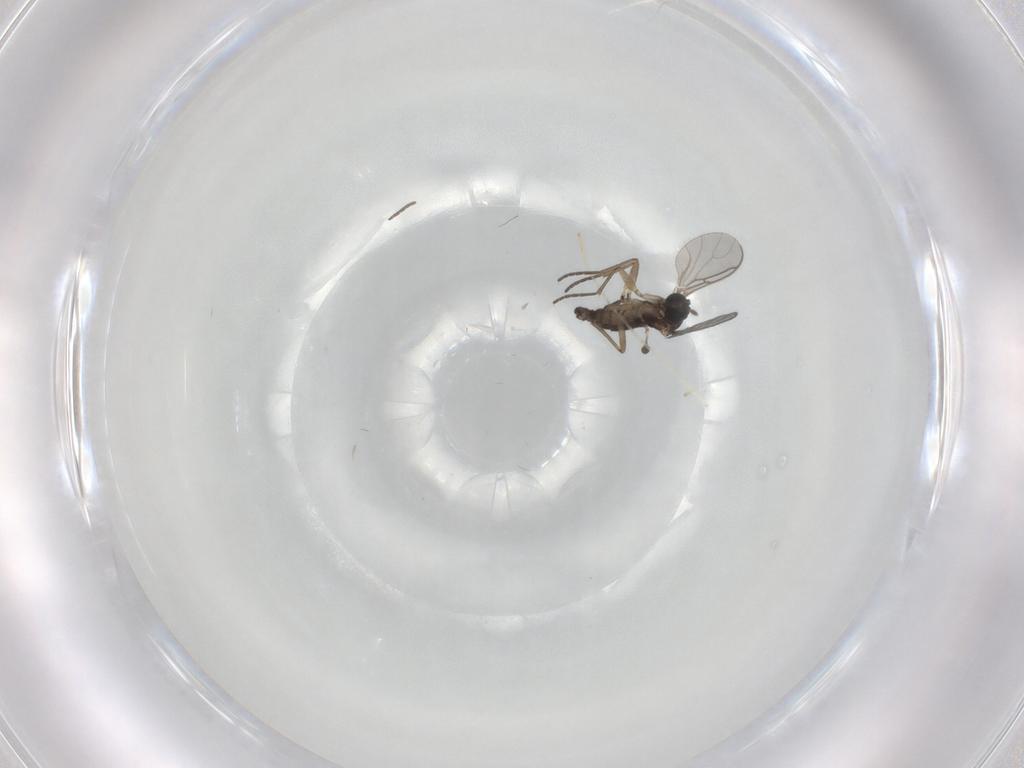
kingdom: Animalia
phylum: Arthropoda
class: Insecta
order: Diptera
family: Chironomidae
